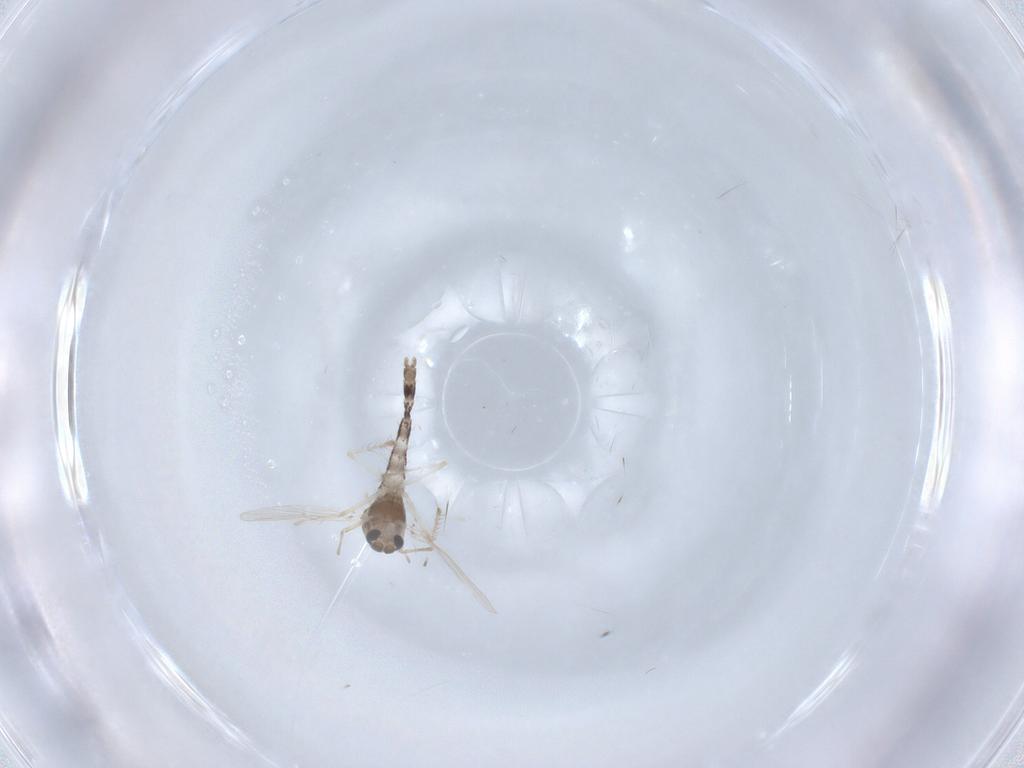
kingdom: Animalia
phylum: Arthropoda
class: Insecta
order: Diptera
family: Chironomidae
